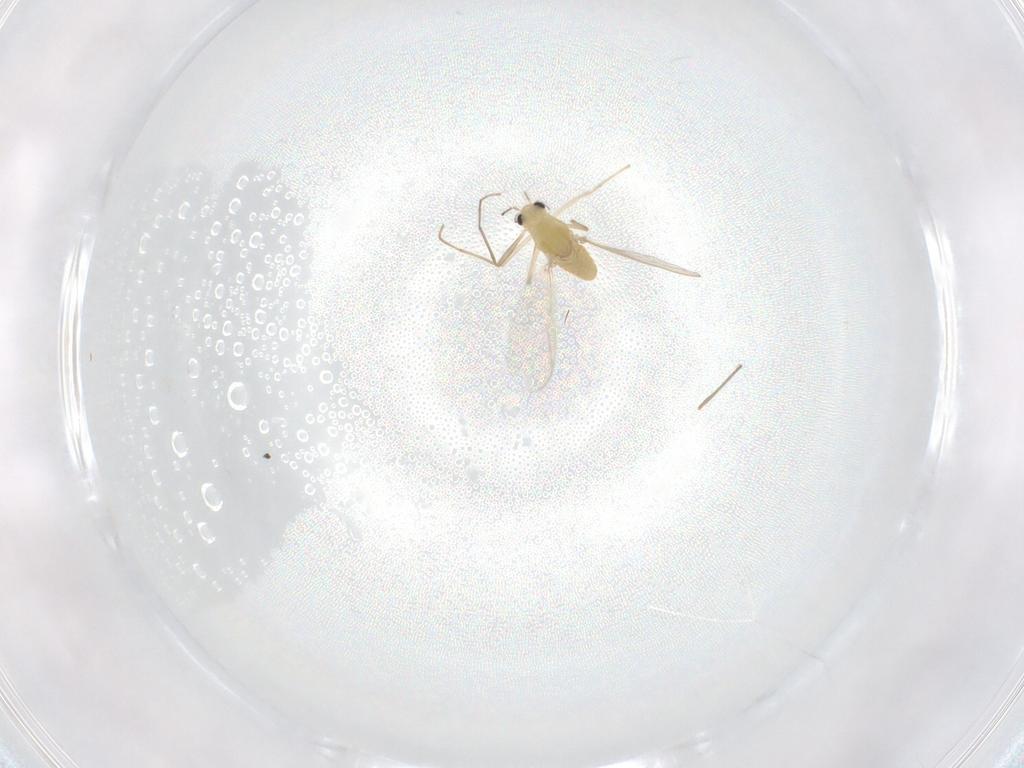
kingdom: Animalia
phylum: Arthropoda
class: Insecta
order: Diptera
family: Chironomidae
